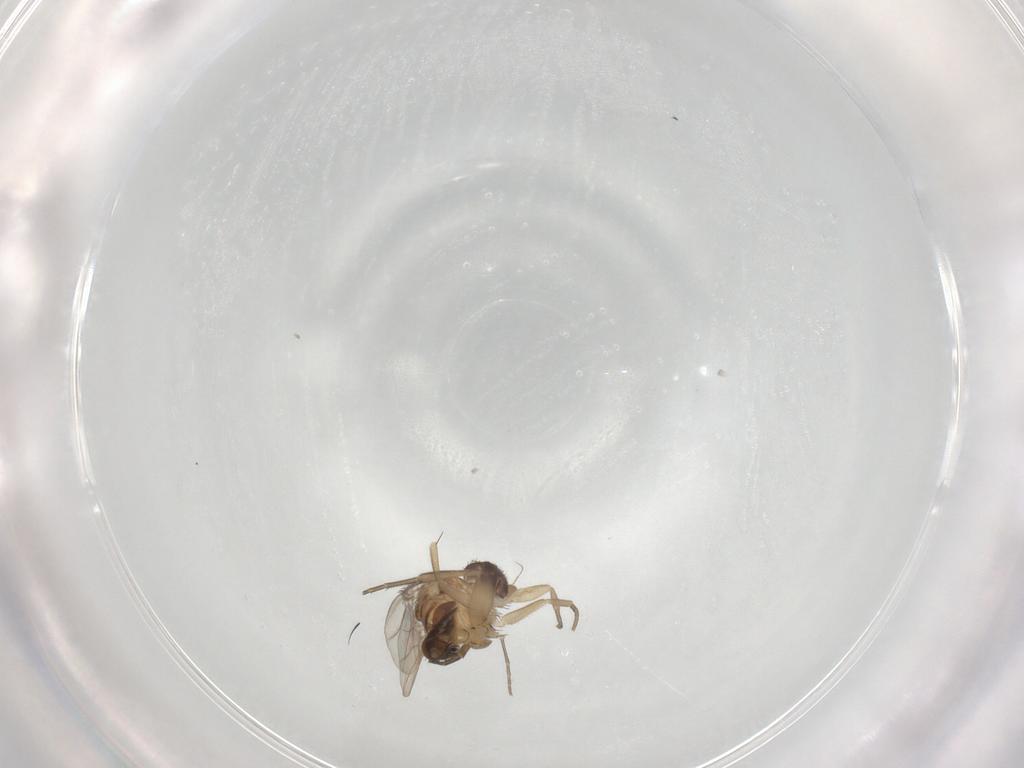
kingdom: Animalia
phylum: Arthropoda
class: Insecta
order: Diptera
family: Phoridae
